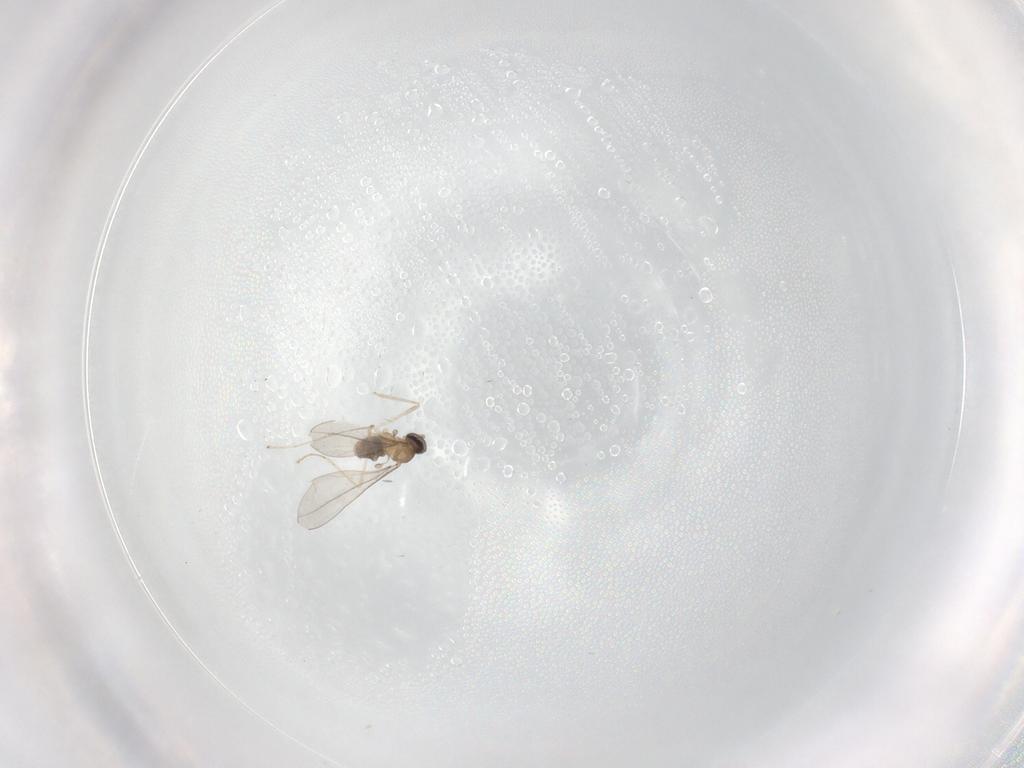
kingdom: Animalia
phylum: Arthropoda
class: Insecta
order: Diptera
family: Cecidomyiidae
